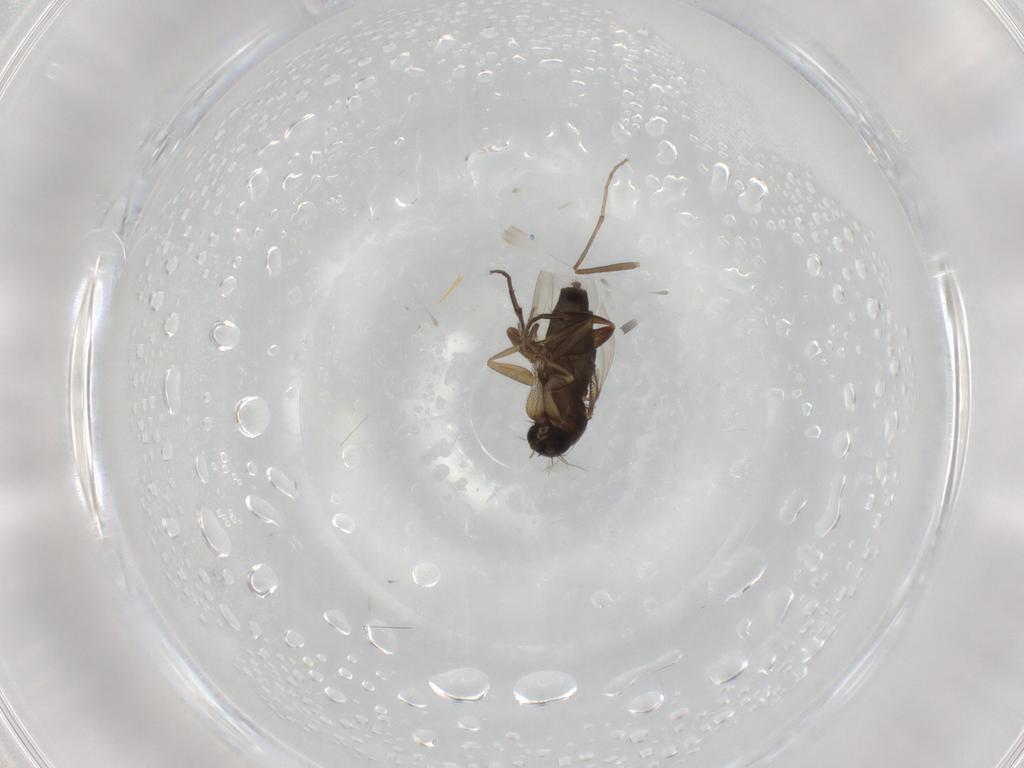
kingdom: Animalia
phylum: Arthropoda
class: Insecta
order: Diptera
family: Phoridae
